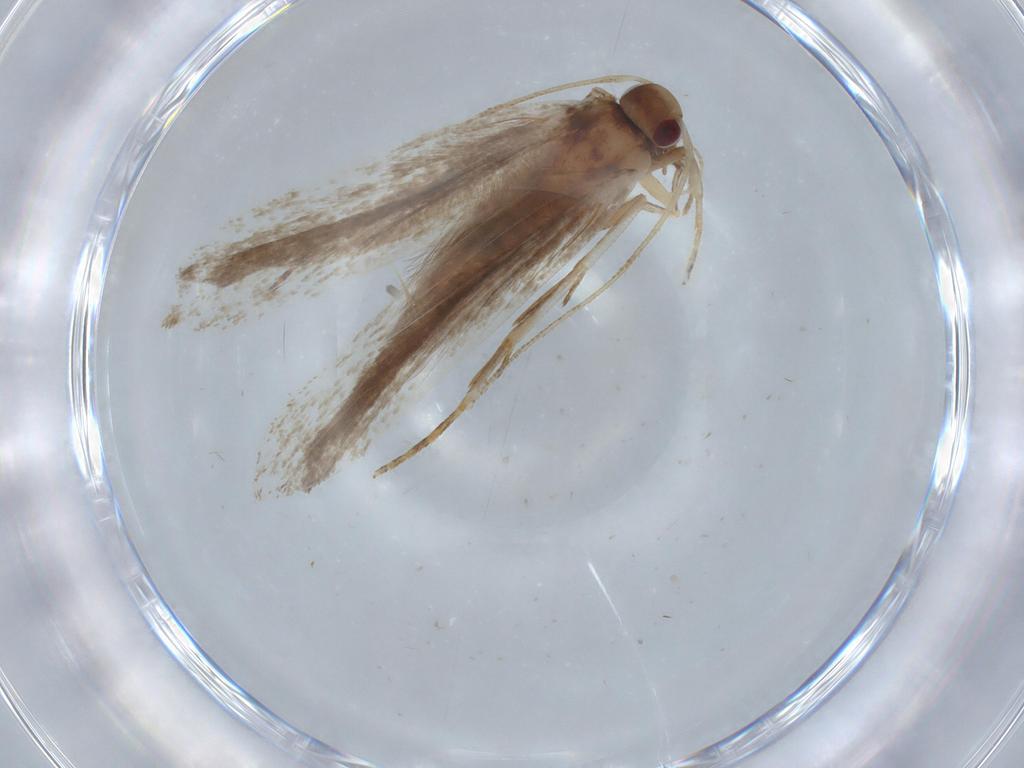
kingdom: Animalia
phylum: Arthropoda
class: Insecta
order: Lepidoptera
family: Gelechiidae
